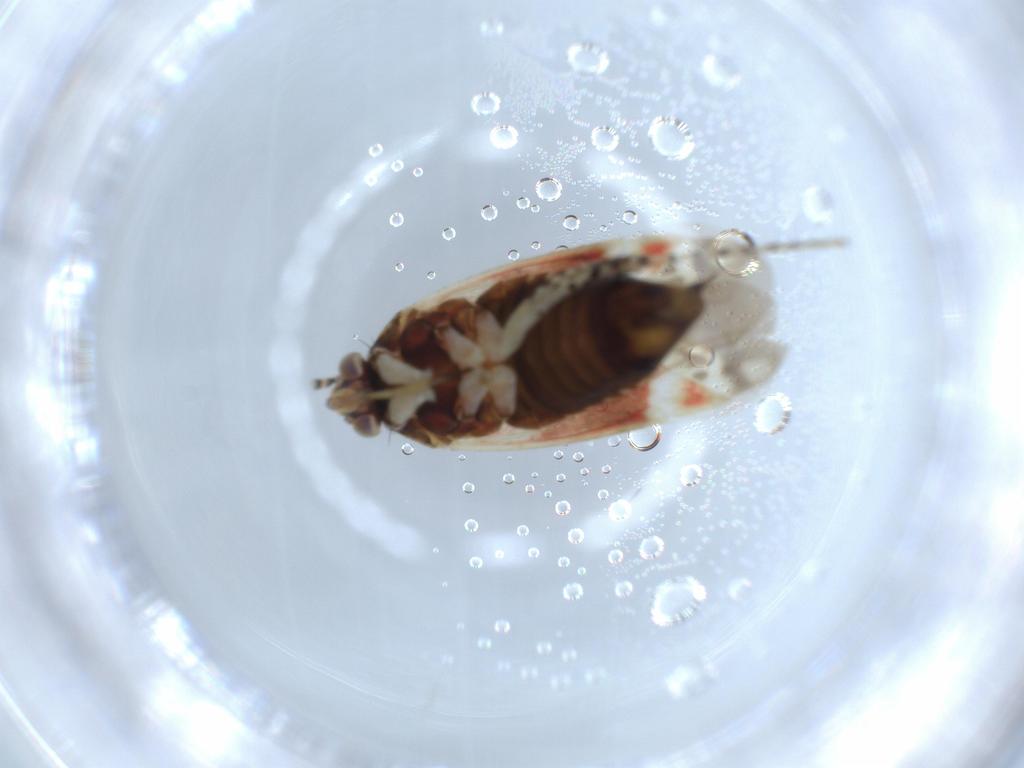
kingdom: Animalia
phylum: Arthropoda
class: Insecta
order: Hemiptera
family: Aphididae
